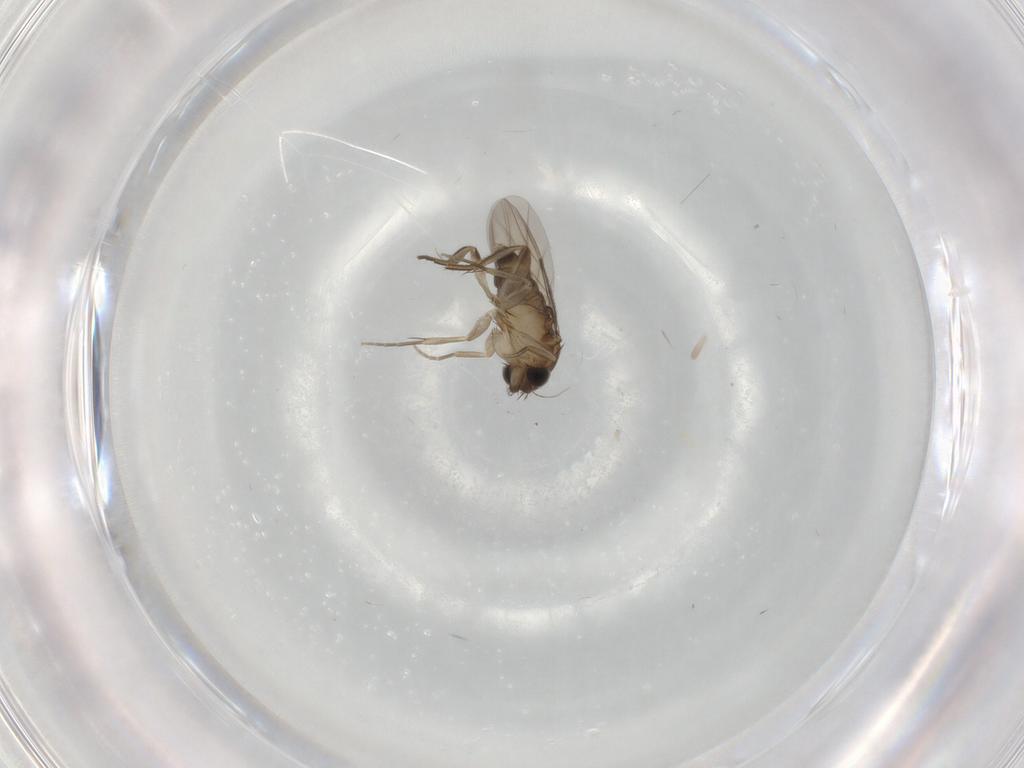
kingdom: Animalia
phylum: Arthropoda
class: Insecta
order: Diptera
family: Phoridae
